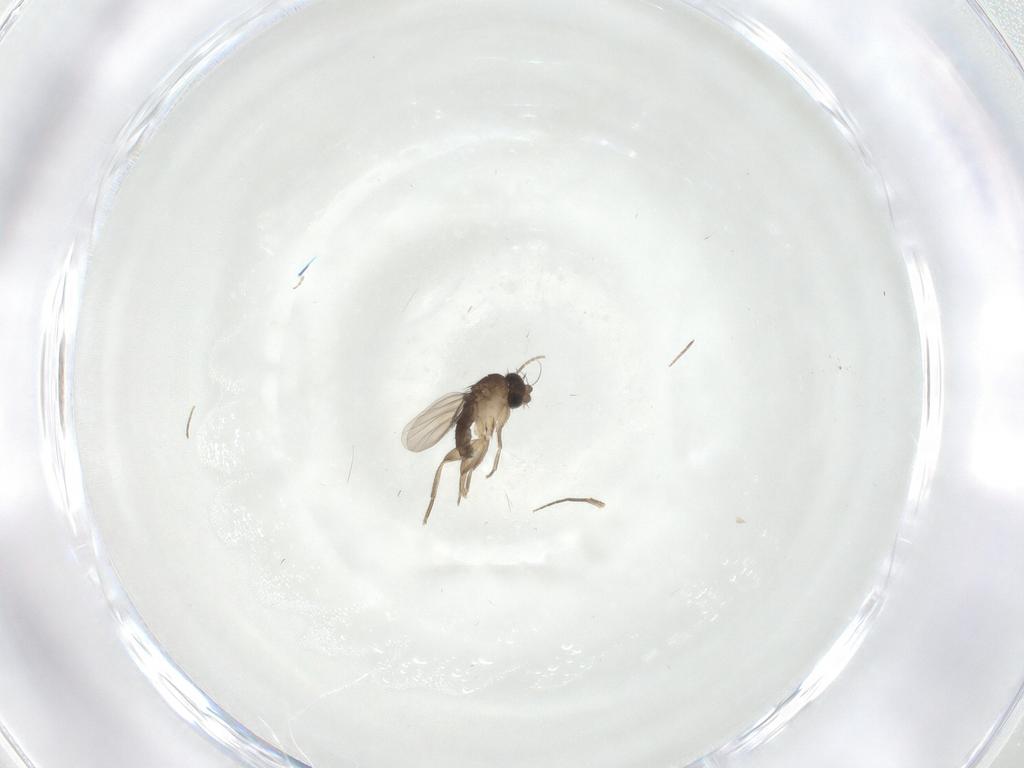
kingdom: Animalia
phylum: Arthropoda
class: Insecta
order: Diptera
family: Phoridae
